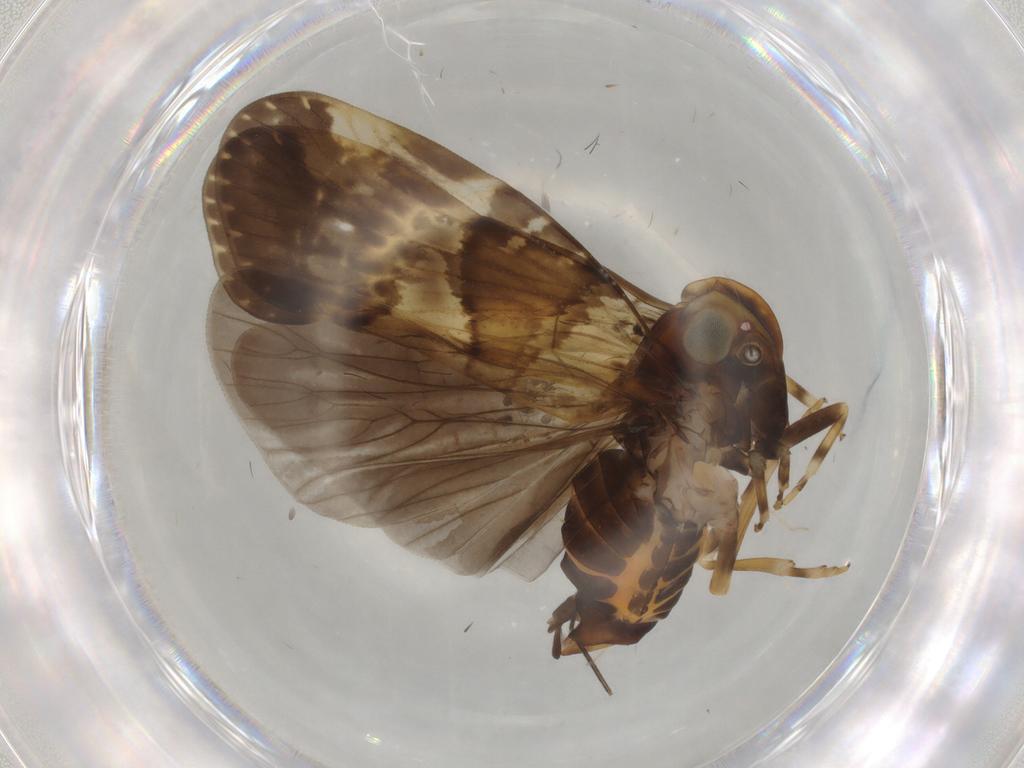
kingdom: Animalia
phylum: Arthropoda
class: Insecta
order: Hemiptera
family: Cixiidae
